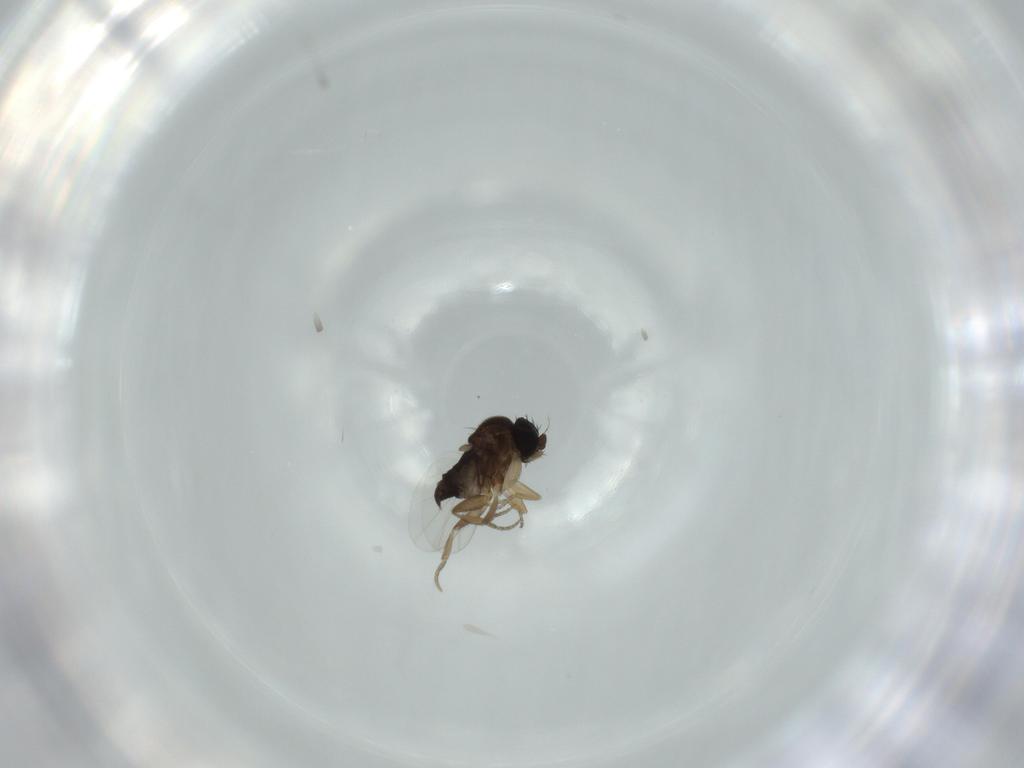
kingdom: Animalia
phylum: Arthropoda
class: Insecta
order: Diptera
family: Phoridae
